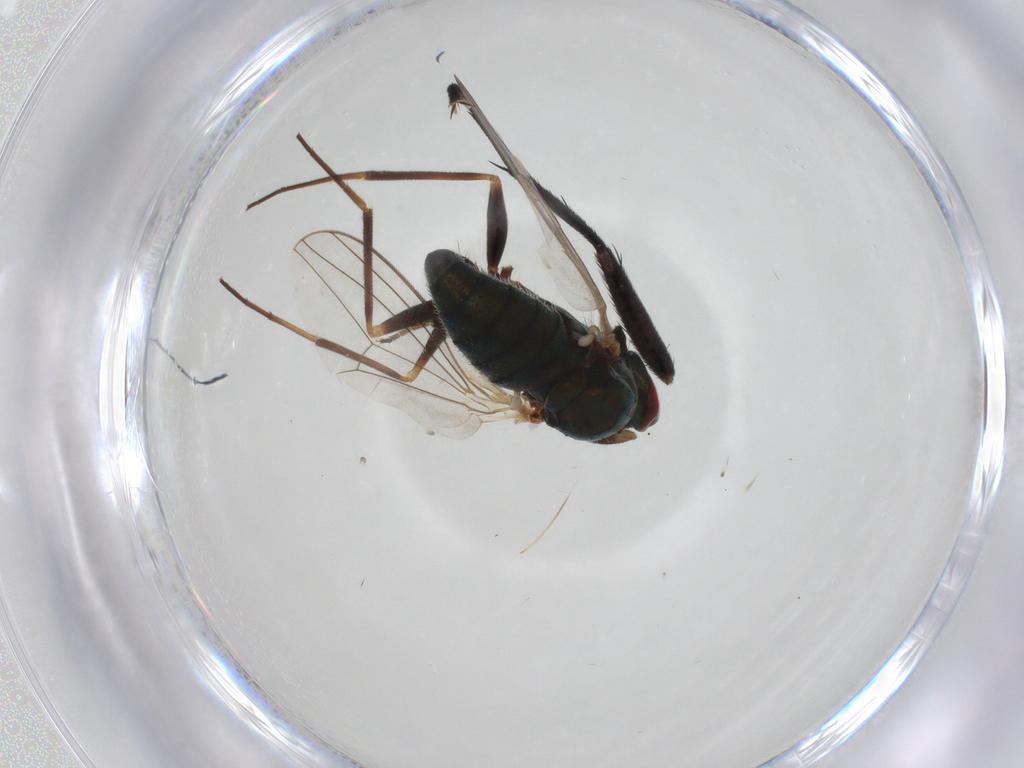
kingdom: Animalia
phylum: Arthropoda
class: Insecta
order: Diptera
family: Dolichopodidae
